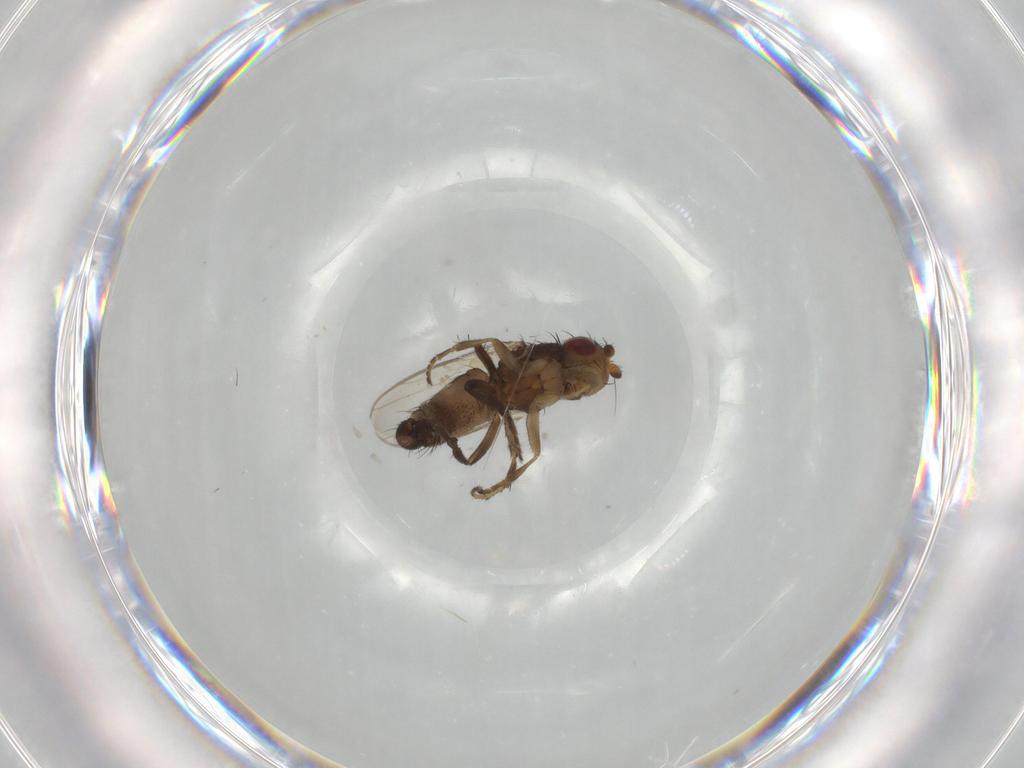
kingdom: Animalia
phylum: Arthropoda
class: Insecta
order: Diptera
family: Sphaeroceridae
